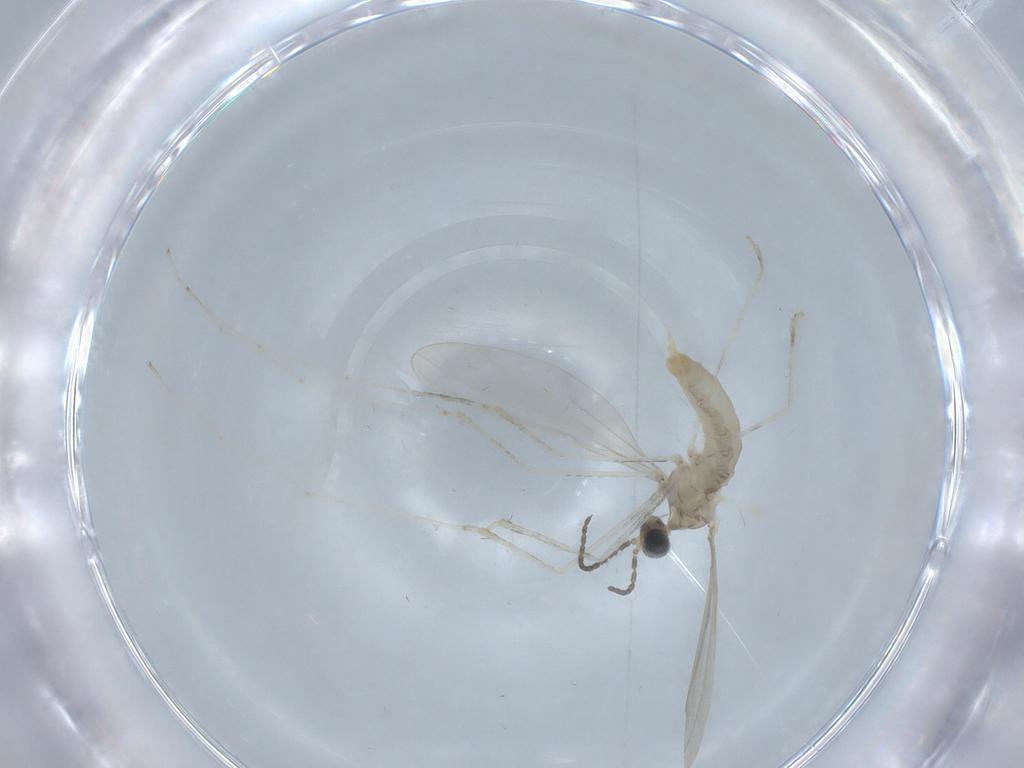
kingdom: Animalia
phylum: Arthropoda
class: Insecta
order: Diptera
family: Cecidomyiidae
